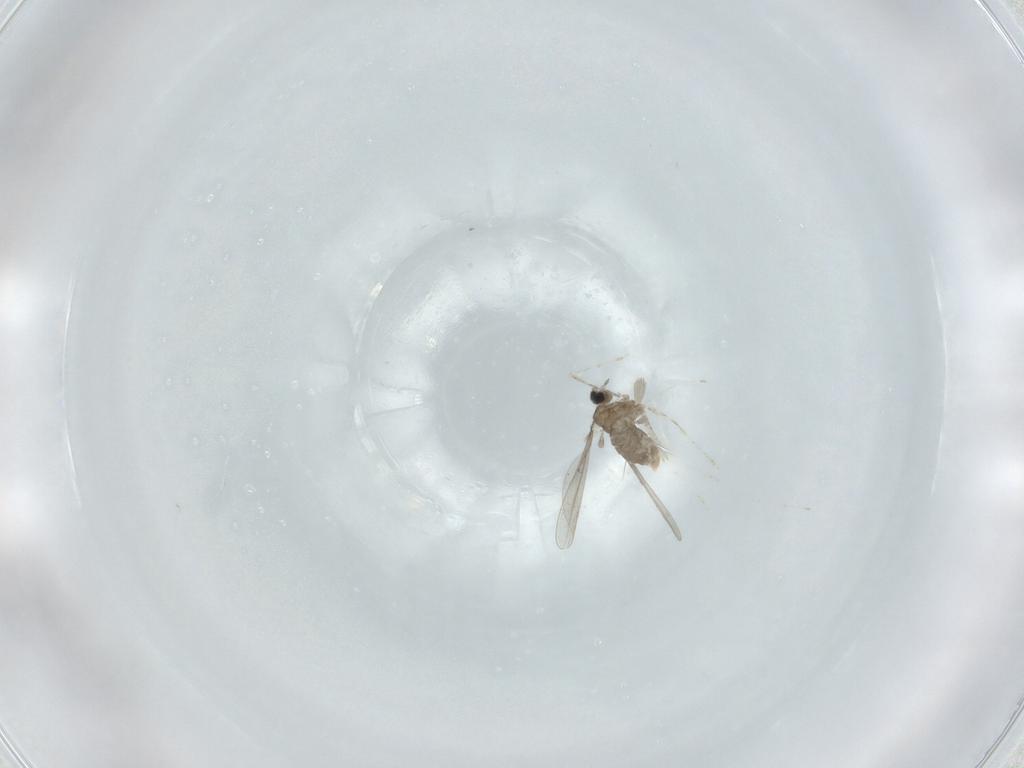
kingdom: Animalia
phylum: Arthropoda
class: Insecta
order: Diptera
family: Cecidomyiidae
